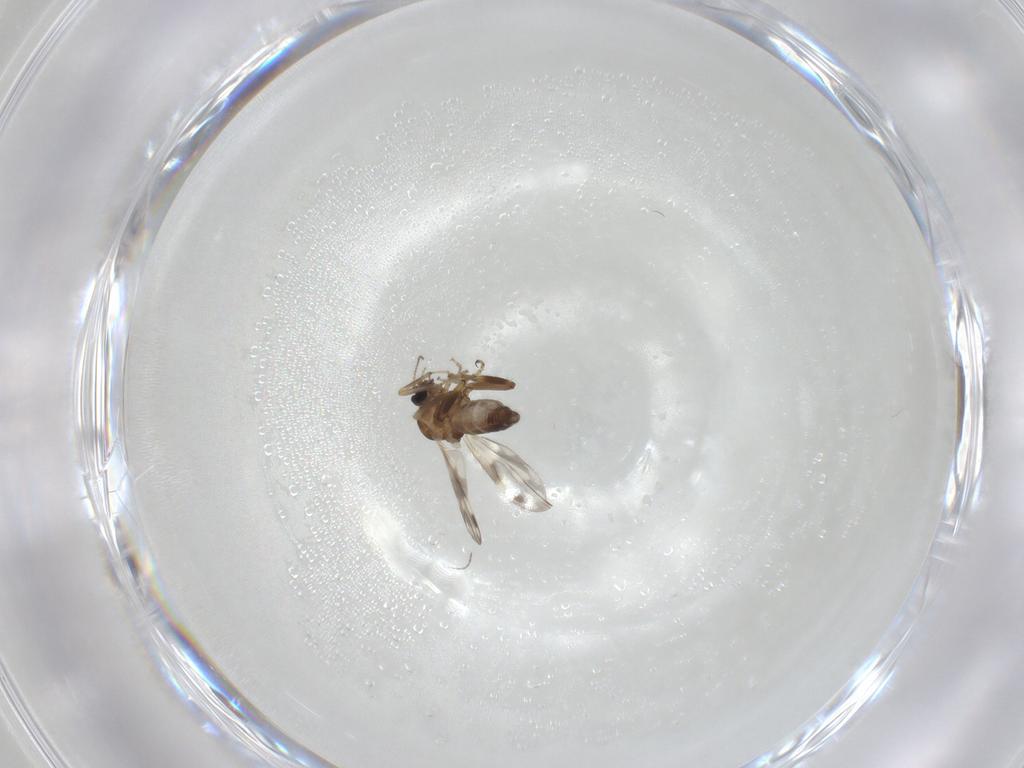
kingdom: Animalia
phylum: Arthropoda
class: Insecta
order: Diptera
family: Ceratopogonidae
